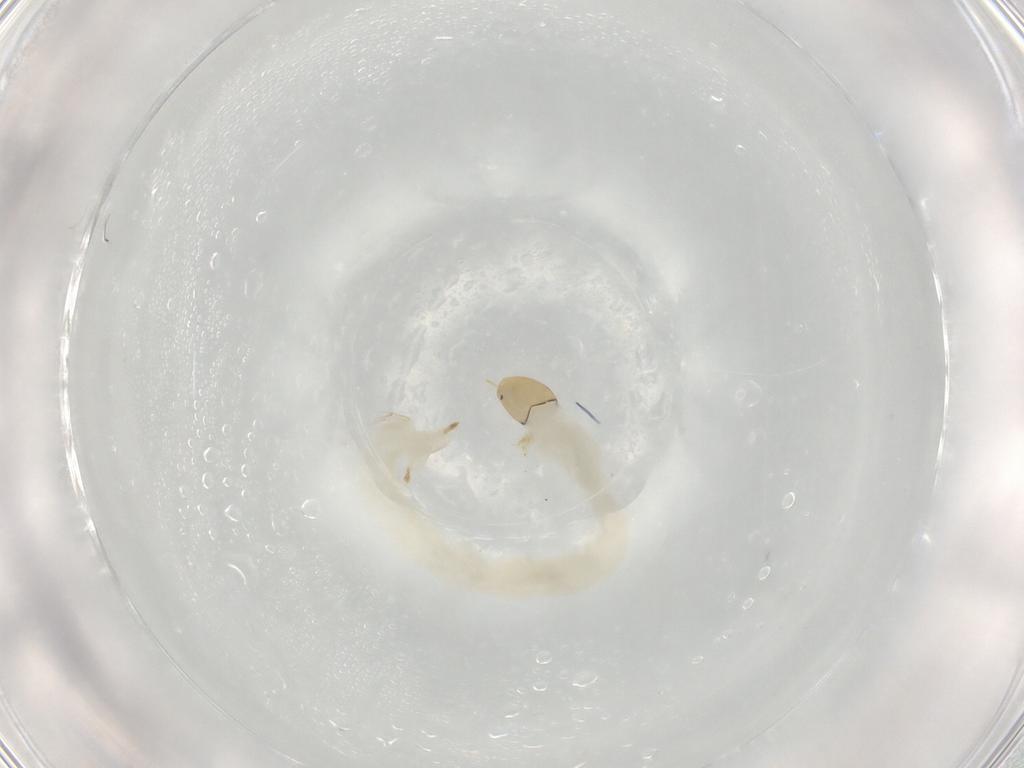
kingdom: Animalia
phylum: Arthropoda
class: Insecta
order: Diptera
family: Chironomidae
